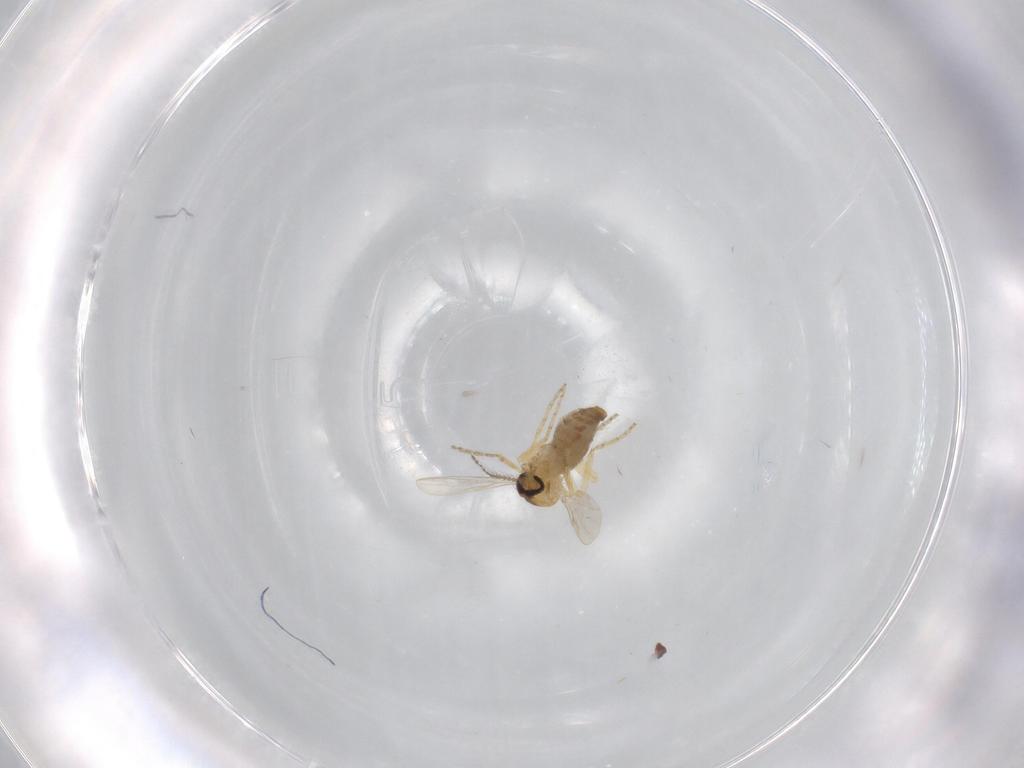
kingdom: Animalia
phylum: Arthropoda
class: Insecta
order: Diptera
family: Ceratopogonidae
